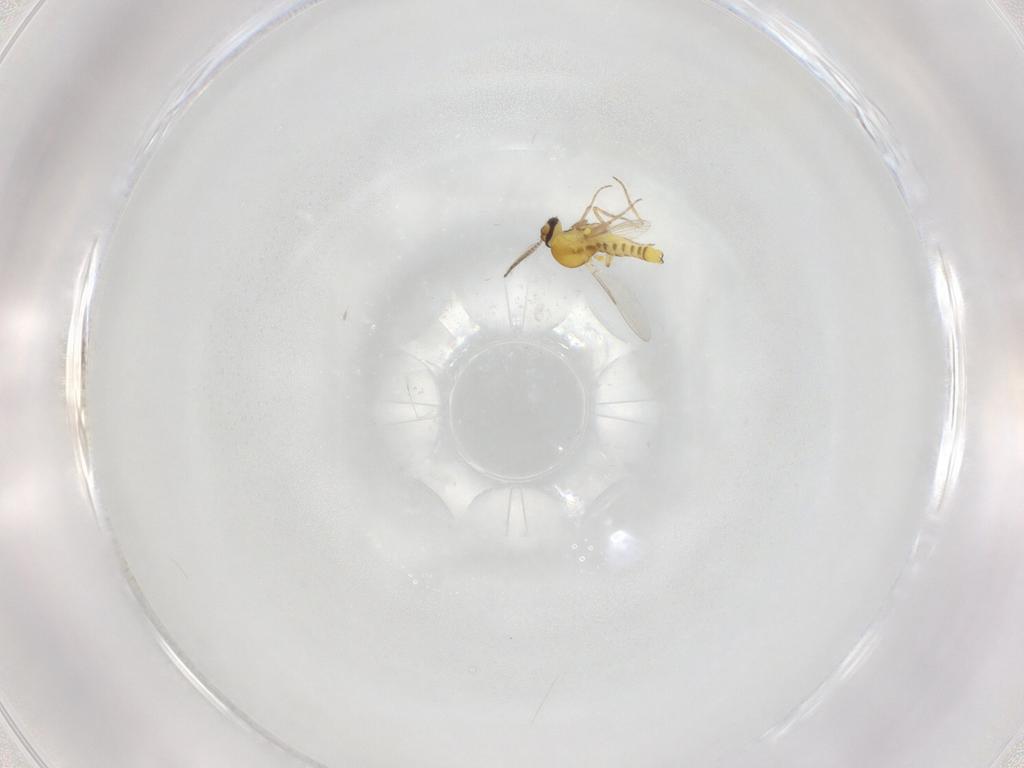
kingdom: Animalia
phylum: Arthropoda
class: Insecta
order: Diptera
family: Ceratopogonidae
